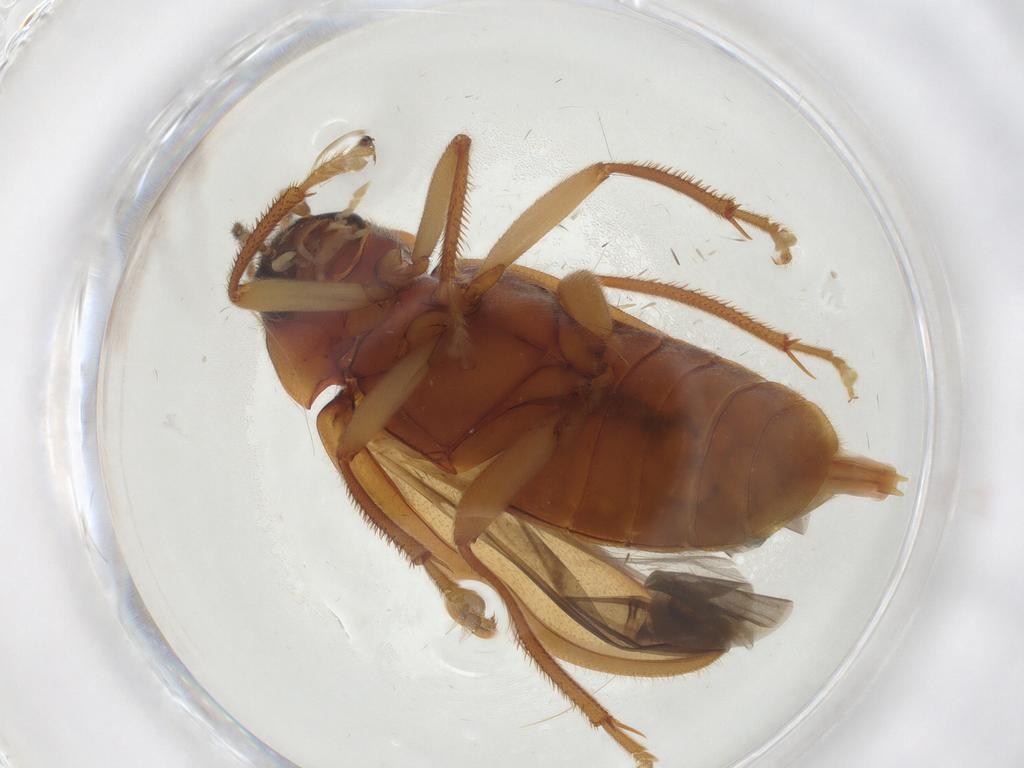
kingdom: Animalia
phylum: Arthropoda
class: Insecta
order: Coleoptera
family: Ptilodactylidae
